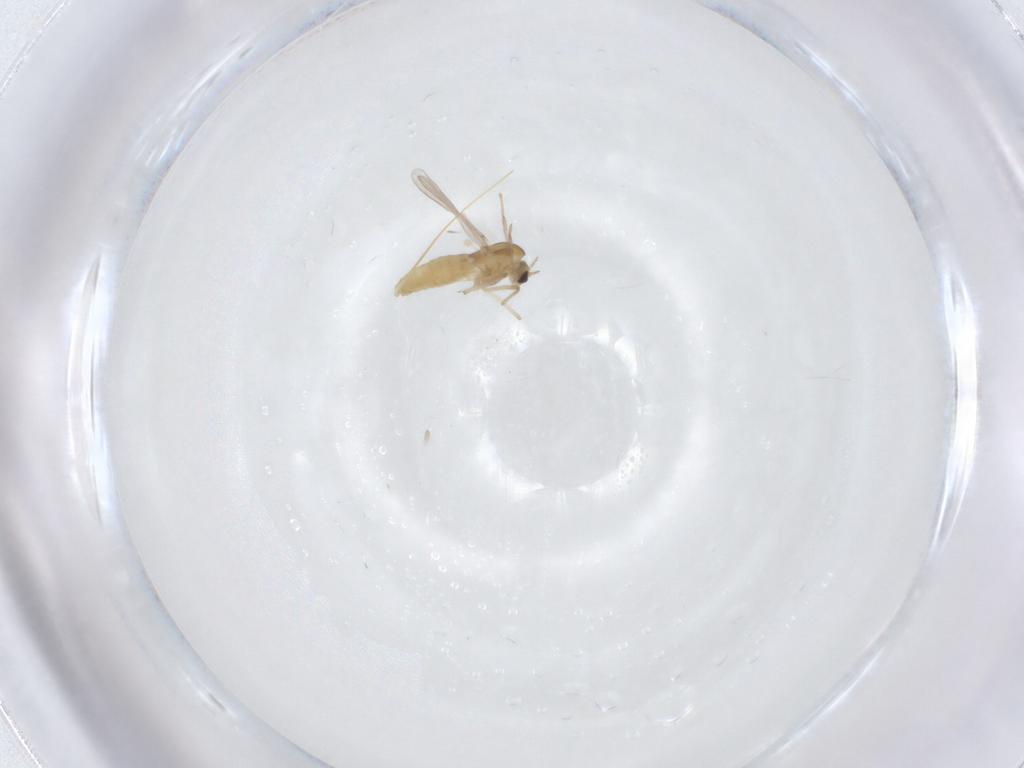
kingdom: Animalia
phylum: Arthropoda
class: Insecta
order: Diptera
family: Chironomidae
